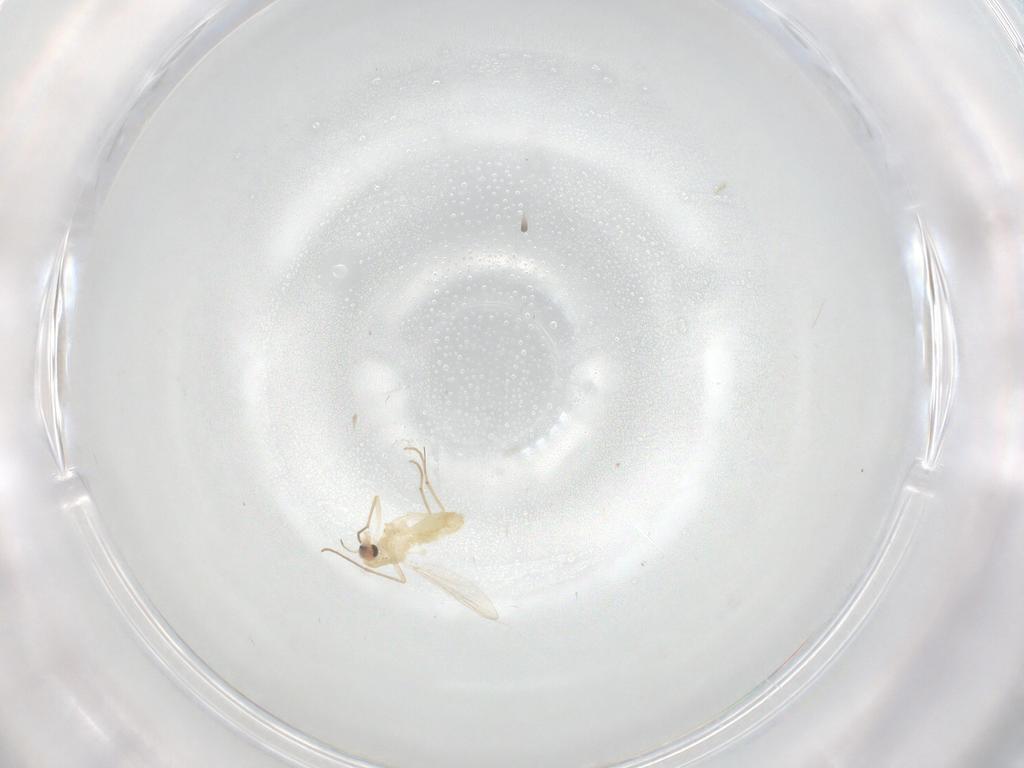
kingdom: Animalia
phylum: Arthropoda
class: Insecta
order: Diptera
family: Chironomidae
